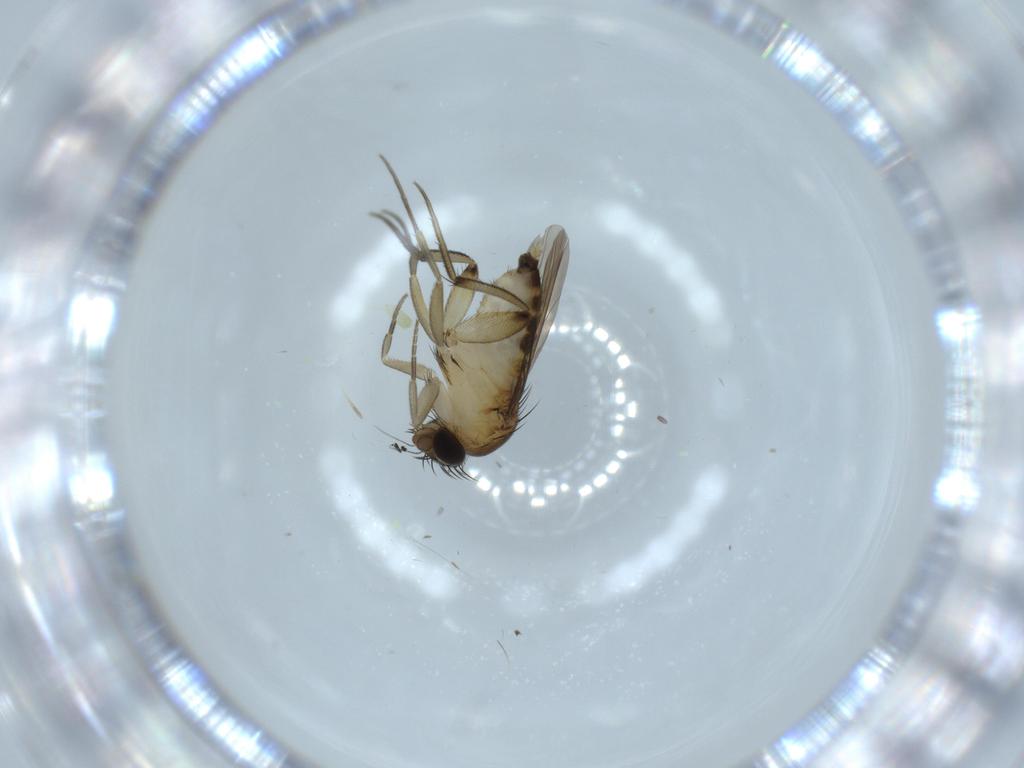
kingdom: Animalia
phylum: Arthropoda
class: Insecta
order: Diptera
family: Phoridae
